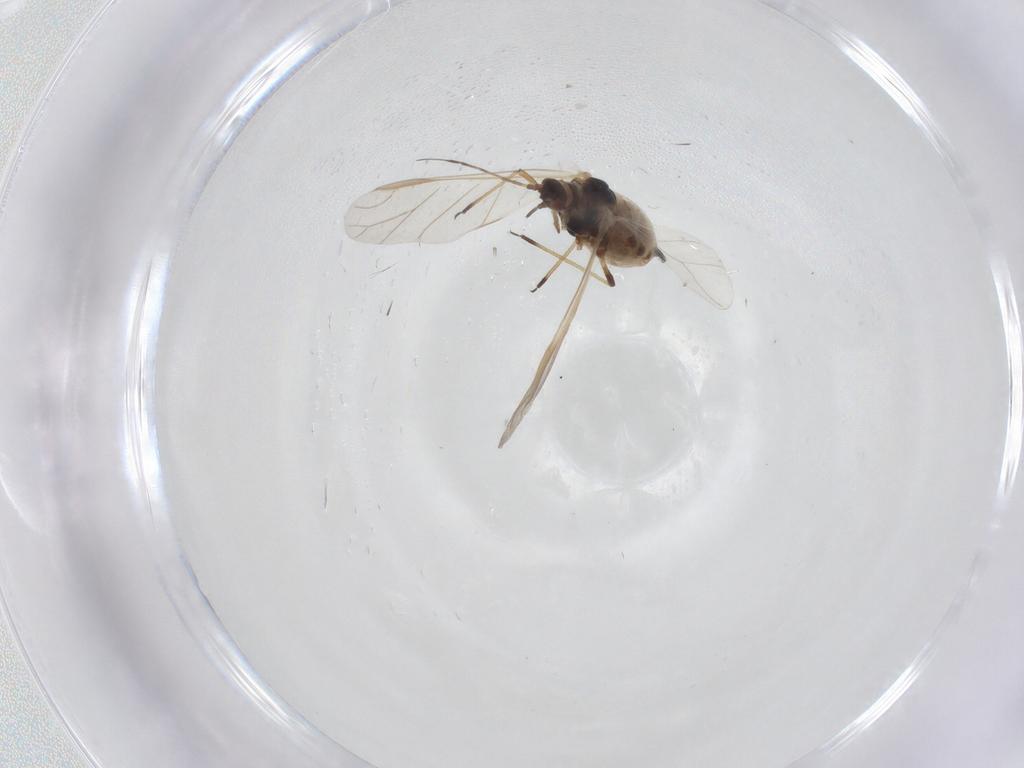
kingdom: Animalia
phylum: Arthropoda
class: Insecta
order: Hemiptera
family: Aphididae
